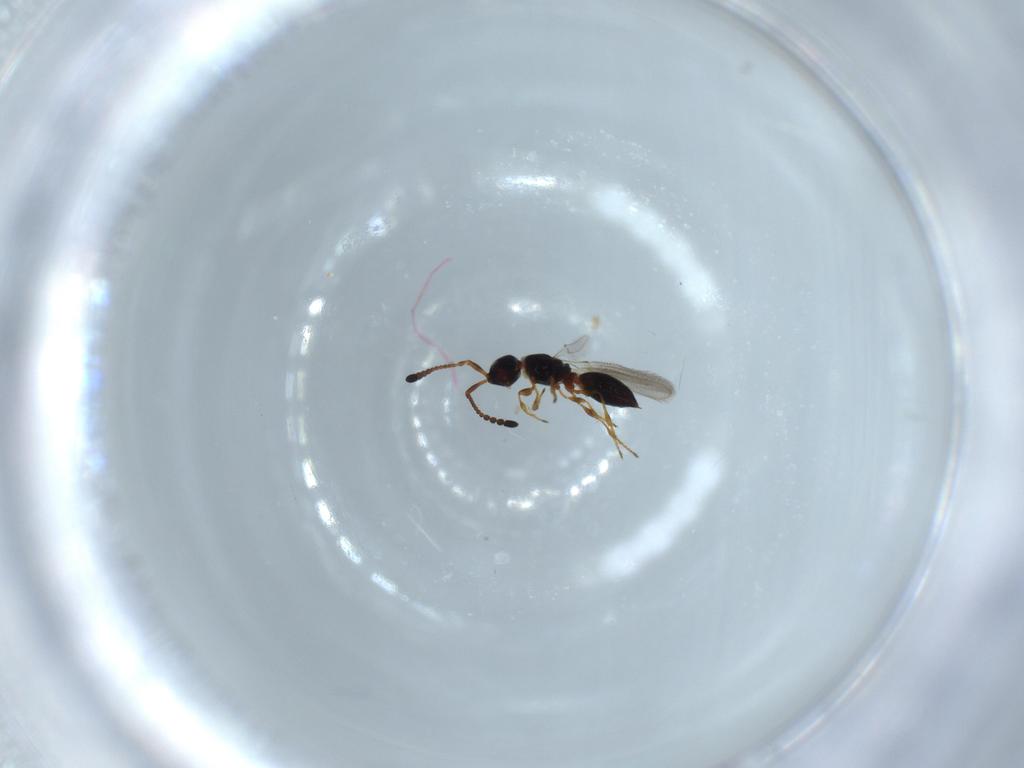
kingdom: Animalia
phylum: Arthropoda
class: Insecta
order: Hymenoptera
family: Diapriidae
